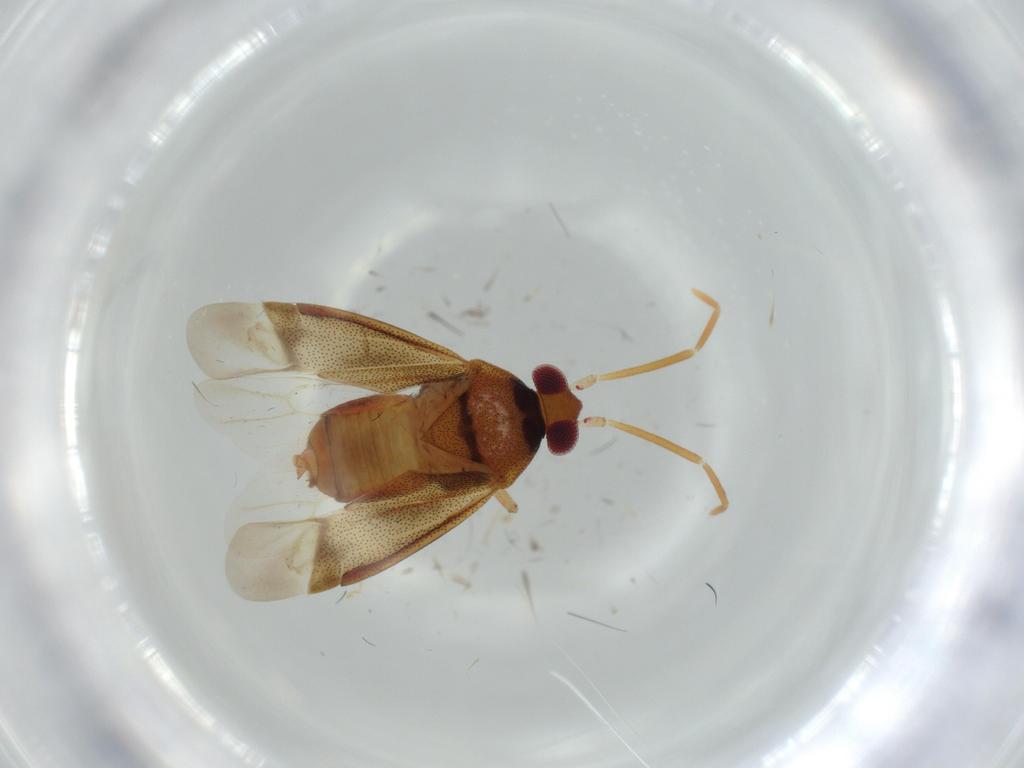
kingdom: Animalia
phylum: Arthropoda
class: Insecta
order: Hemiptera
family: Miridae
